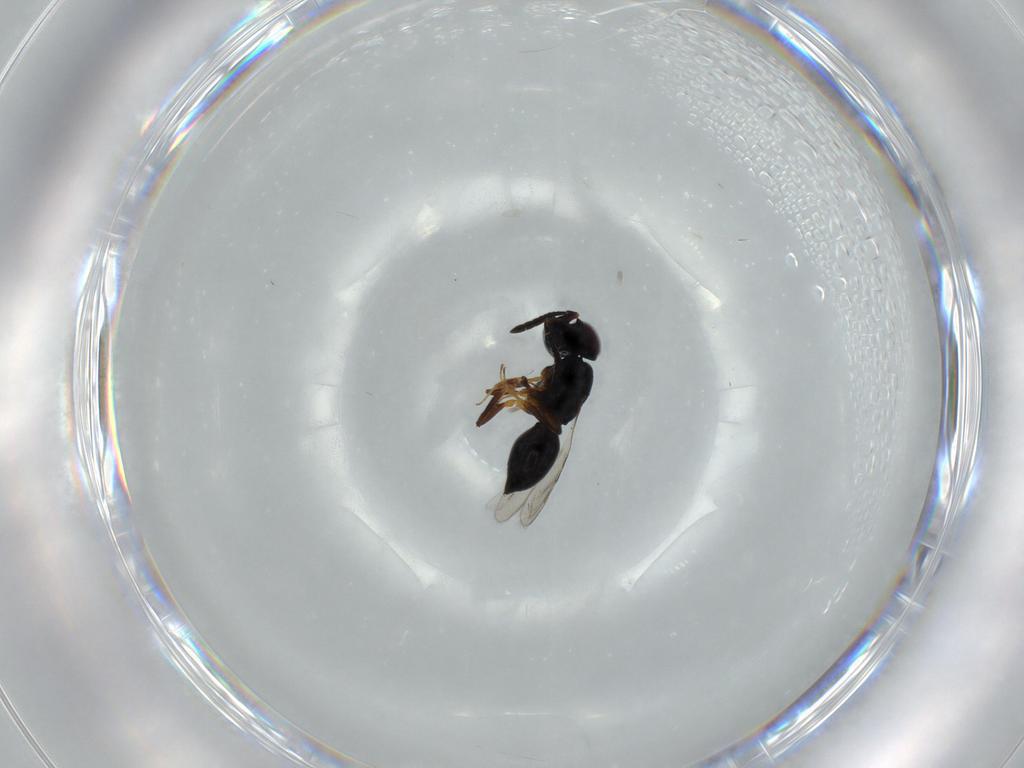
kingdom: Animalia
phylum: Arthropoda
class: Insecta
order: Hymenoptera
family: Ceraphronidae
